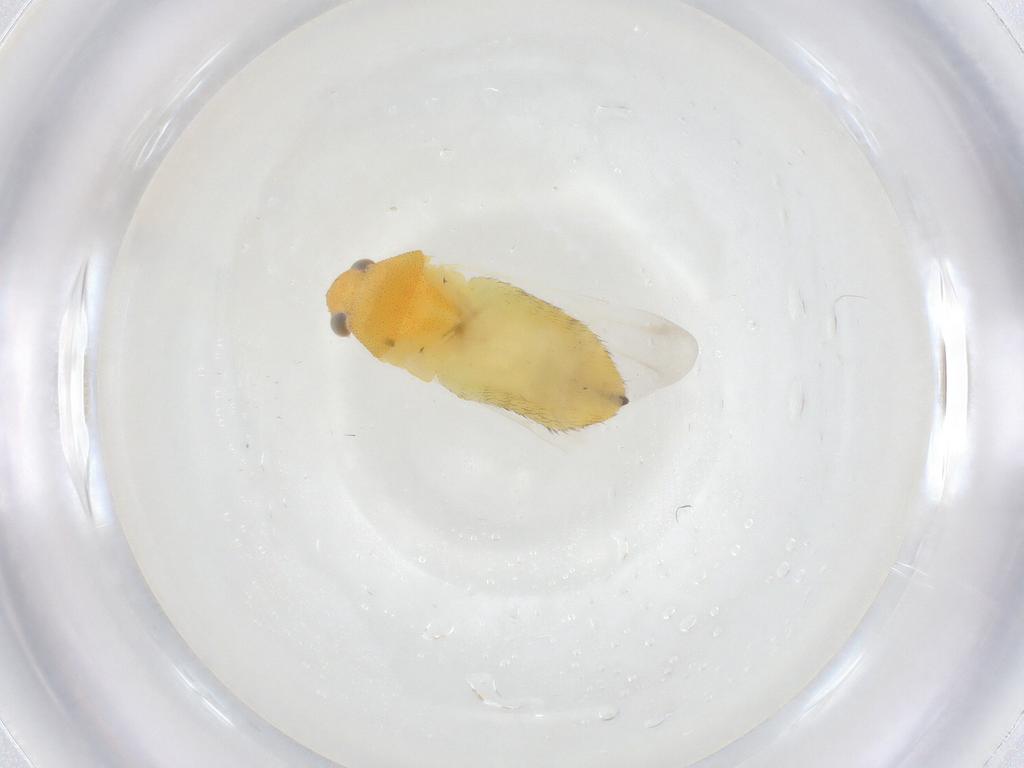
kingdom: Animalia
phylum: Arthropoda
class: Insecta
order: Hemiptera
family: Miridae
